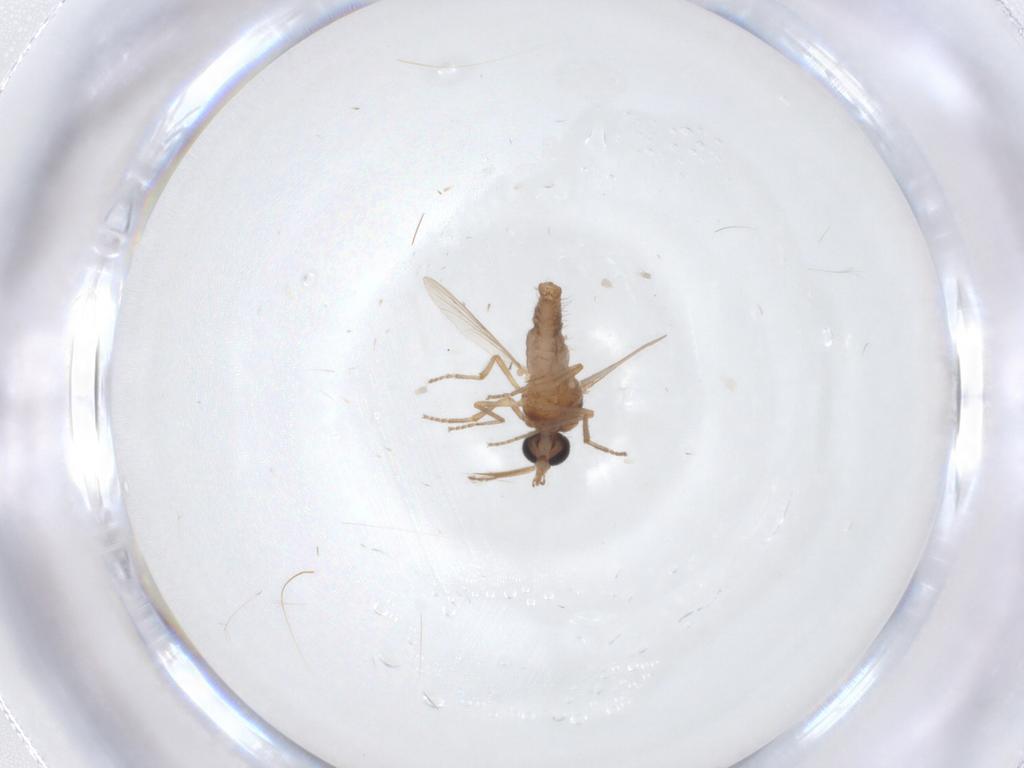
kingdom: Animalia
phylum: Arthropoda
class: Insecta
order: Diptera
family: Ceratopogonidae
